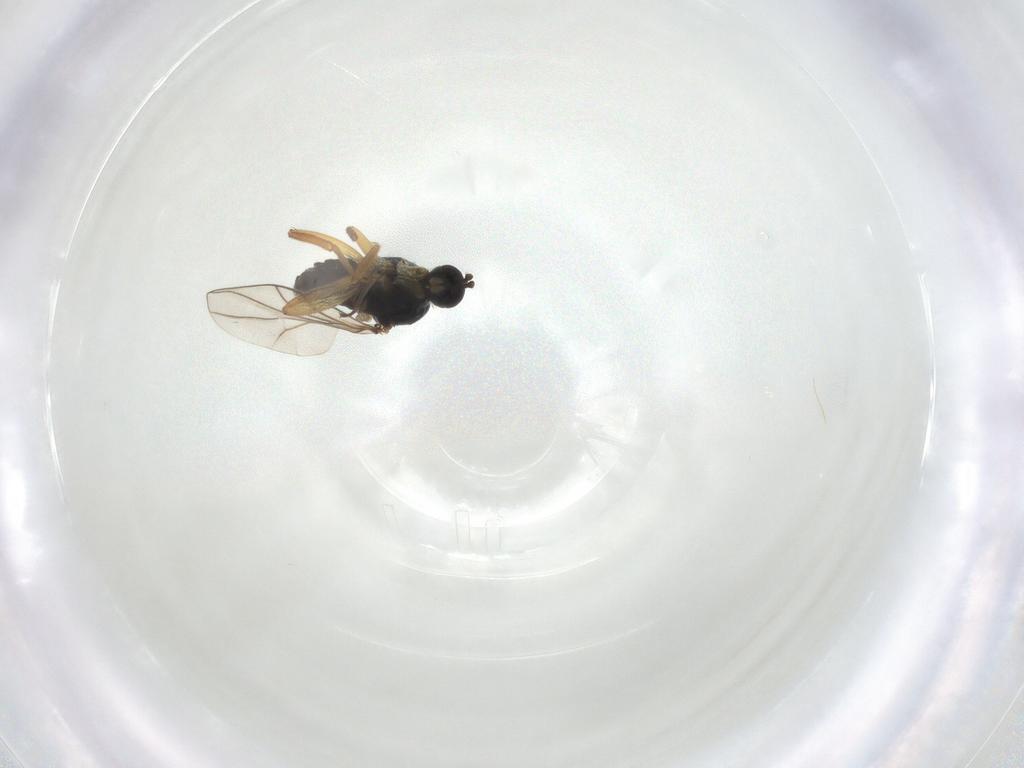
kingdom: Animalia
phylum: Arthropoda
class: Insecta
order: Diptera
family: Hybotidae
